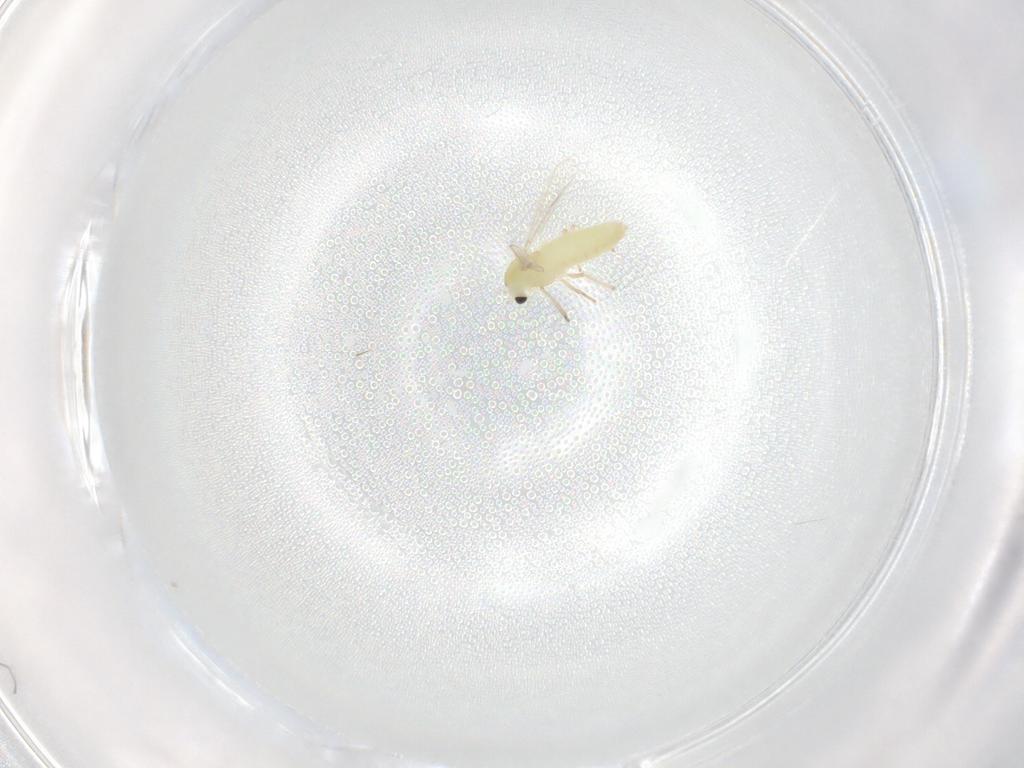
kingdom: Animalia
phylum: Arthropoda
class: Insecta
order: Diptera
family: Chironomidae
